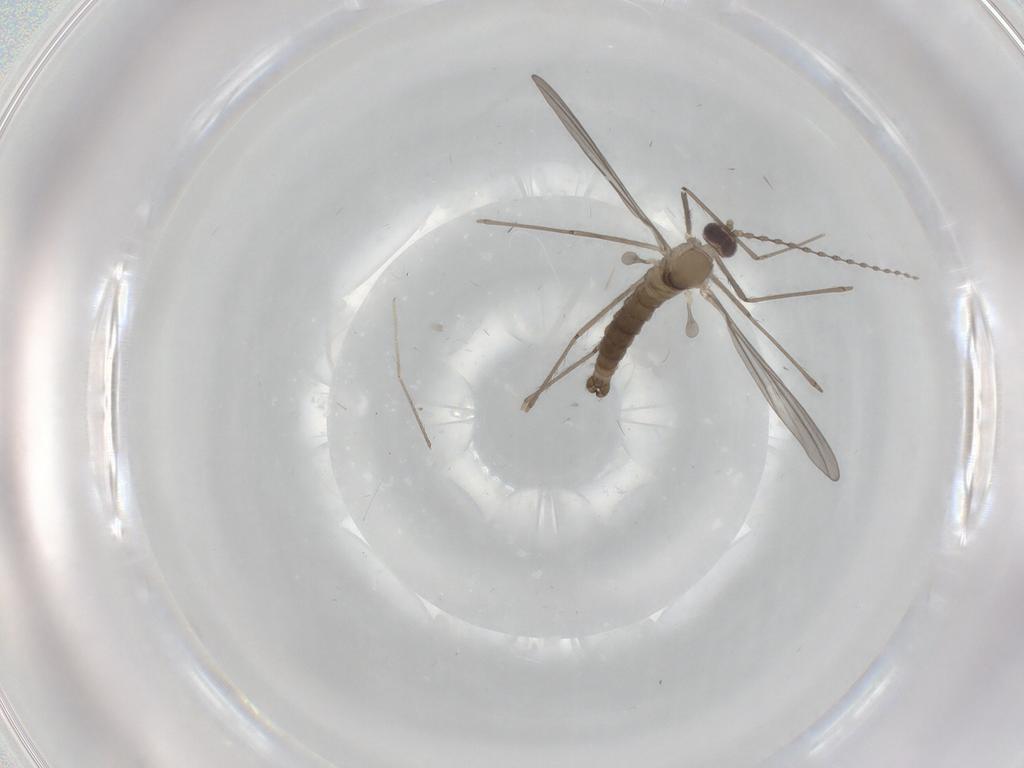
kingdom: Animalia
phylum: Arthropoda
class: Insecta
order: Diptera
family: Cecidomyiidae
